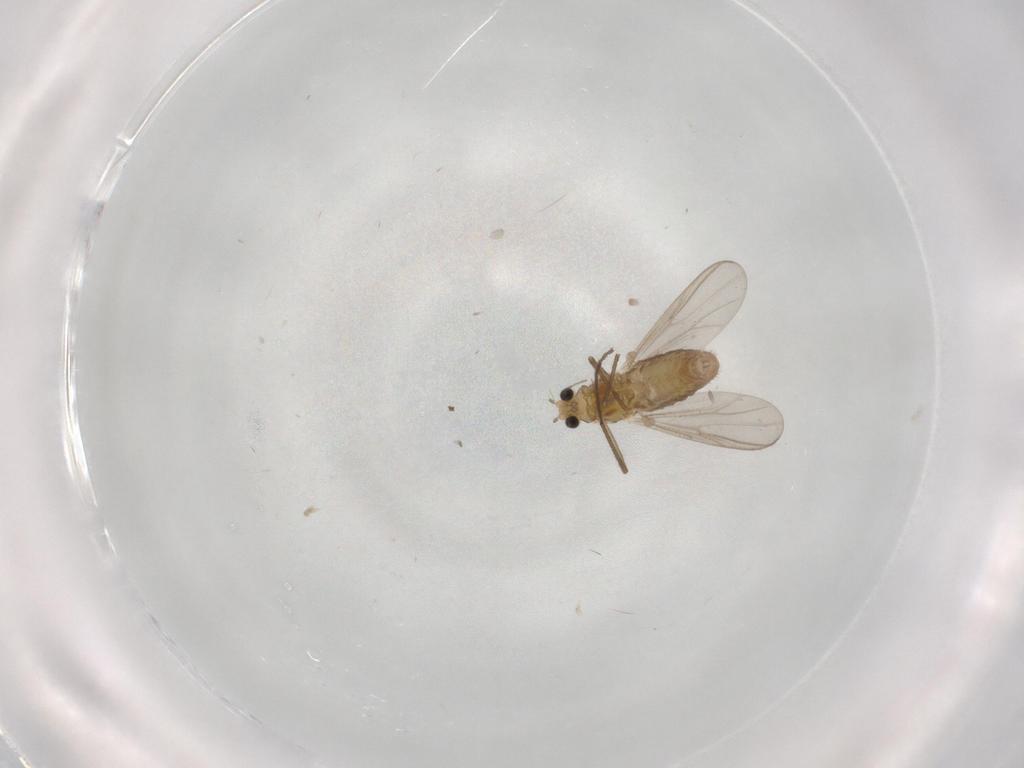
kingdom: Animalia
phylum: Arthropoda
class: Insecta
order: Diptera
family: Chironomidae
